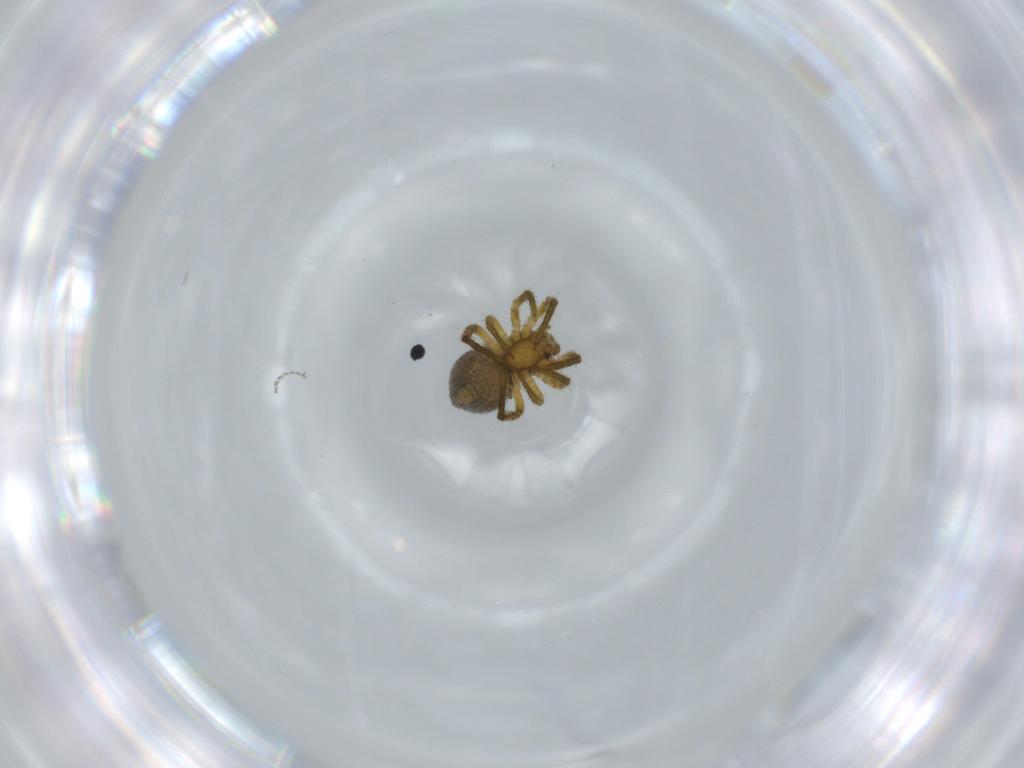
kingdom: Animalia
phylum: Arthropoda
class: Arachnida
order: Araneae
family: Theridiidae
